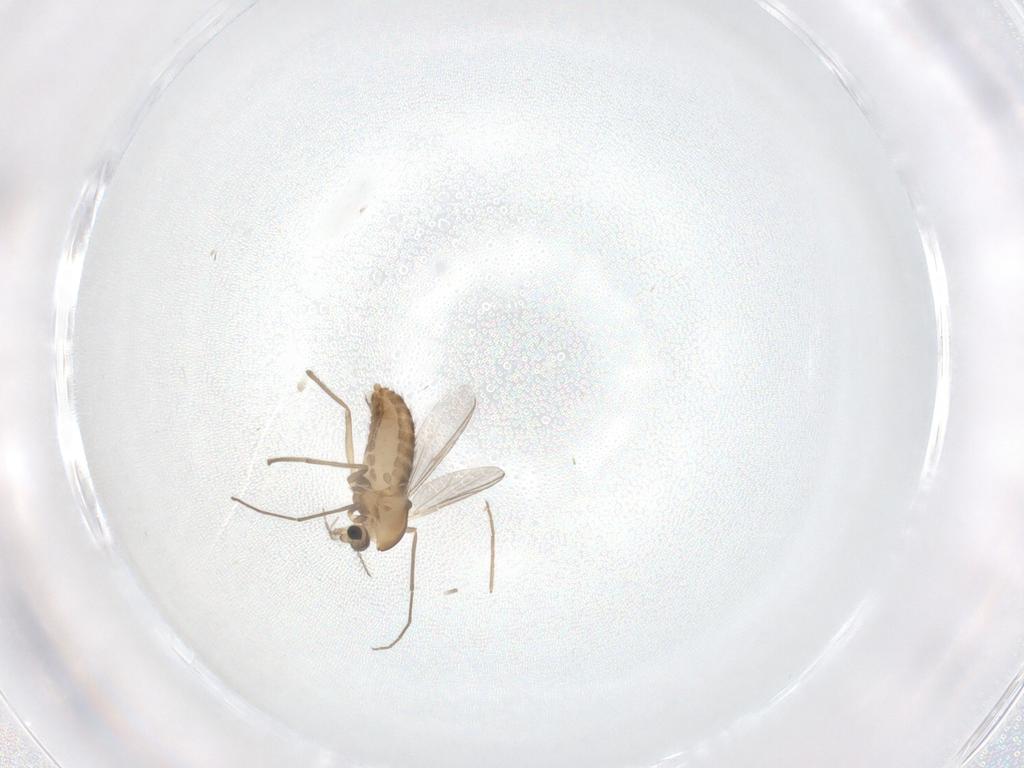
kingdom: Animalia
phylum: Arthropoda
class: Insecta
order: Diptera
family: Chironomidae
